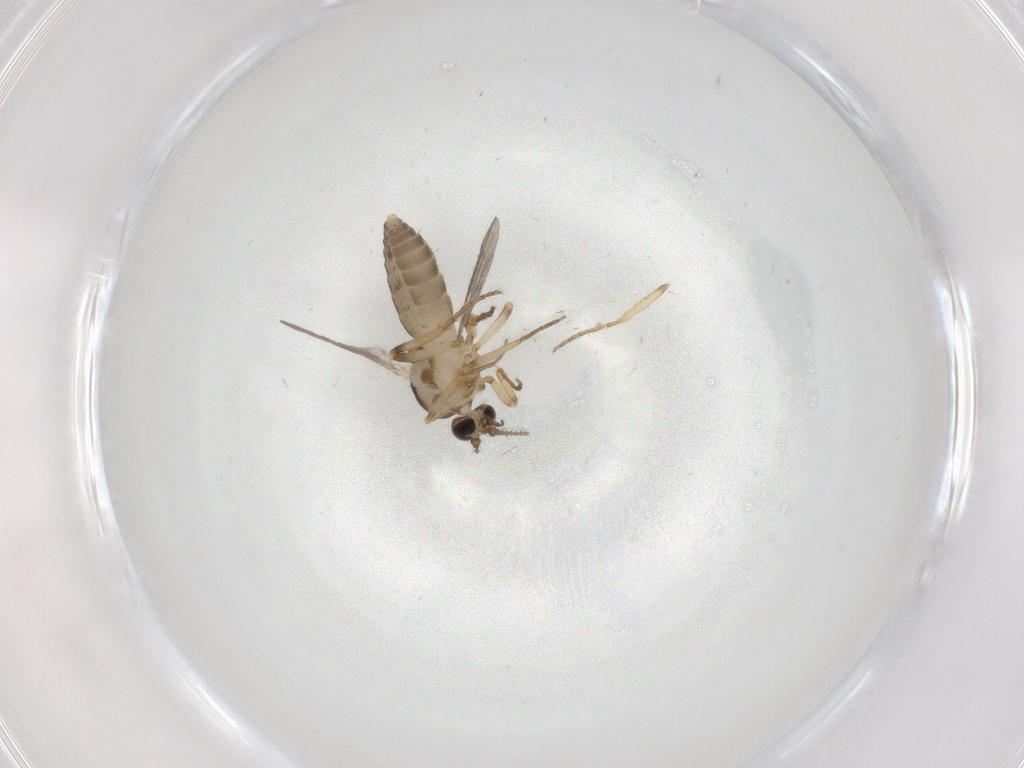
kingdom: Animalia
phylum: Arthropoda
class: Insecta
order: Diptera
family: Ceratopogonidae
